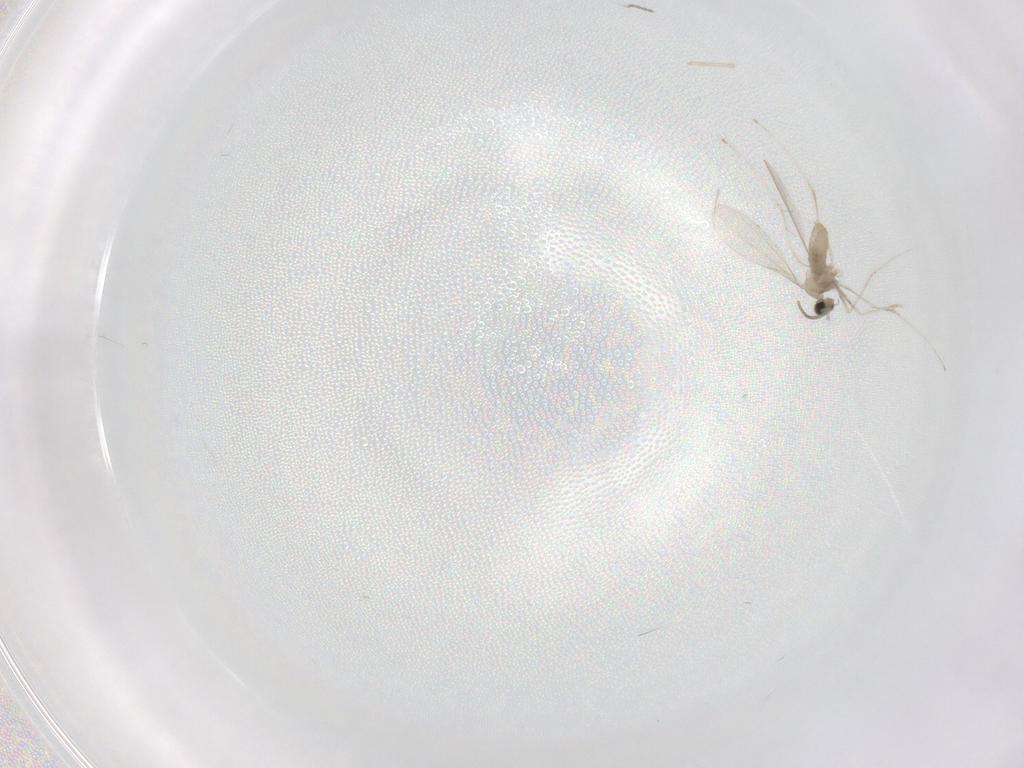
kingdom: Animalia
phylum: Arthropoda
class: Insecta
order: Diptera
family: Cecidomyiidae
